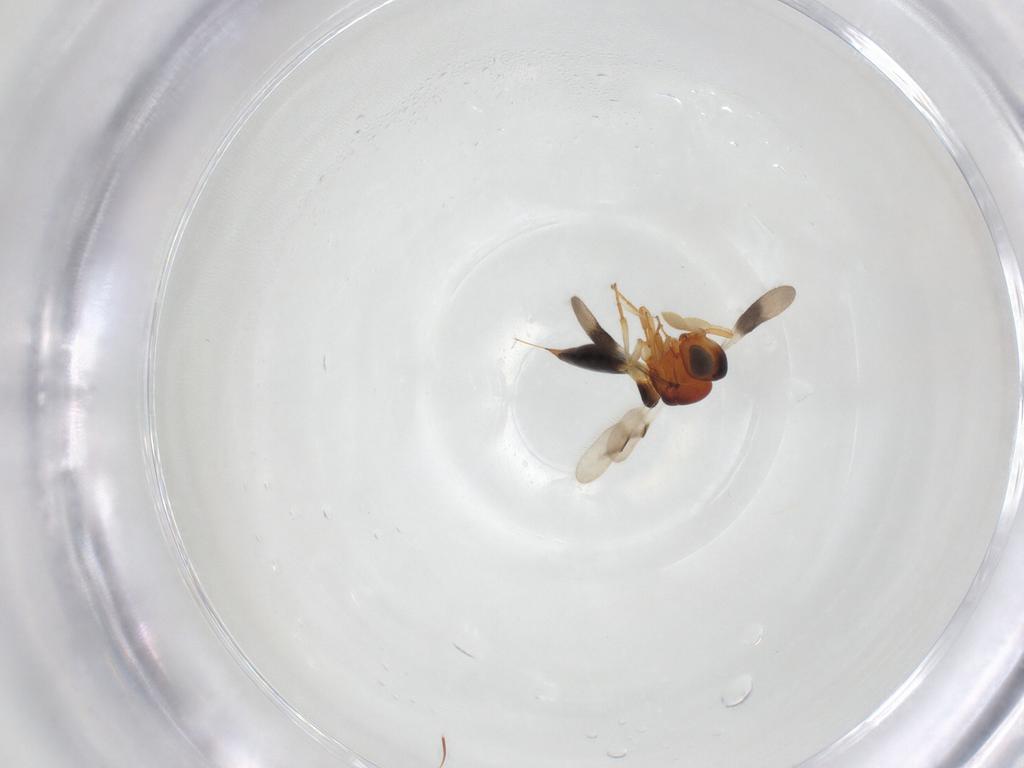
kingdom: Animalia
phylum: Arthropoda
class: Insecta
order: Hymenoptera
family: Scelionidae
